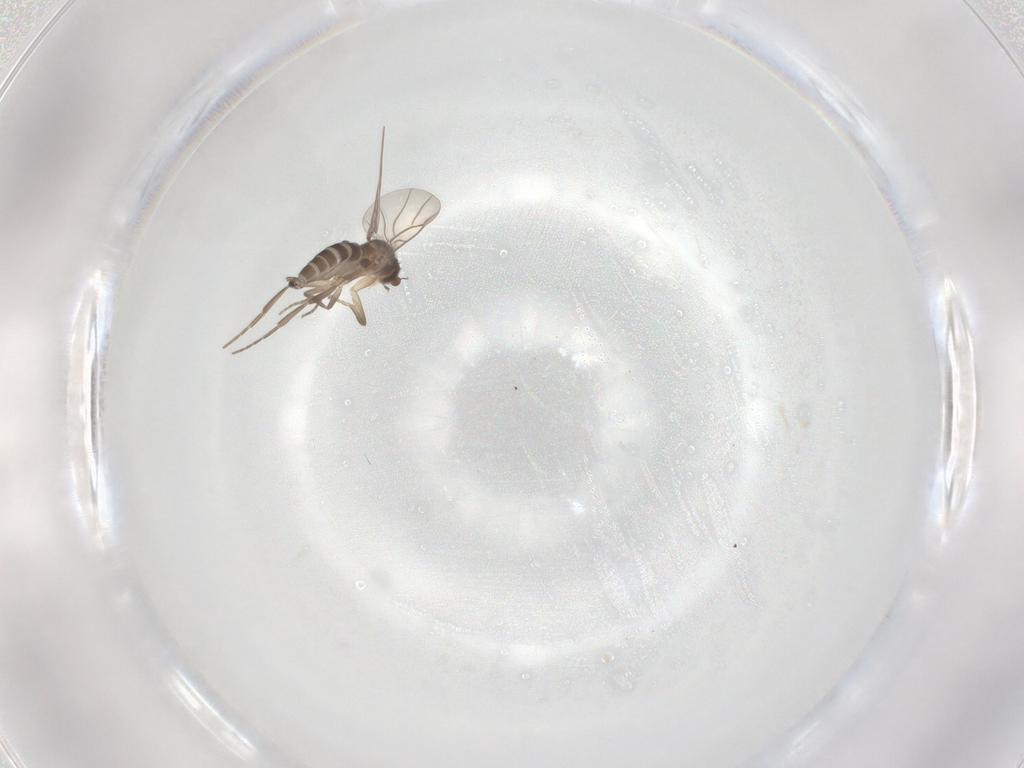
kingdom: Animalia
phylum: Arthropoda
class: Insecta
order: Diptera
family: Phoridae
